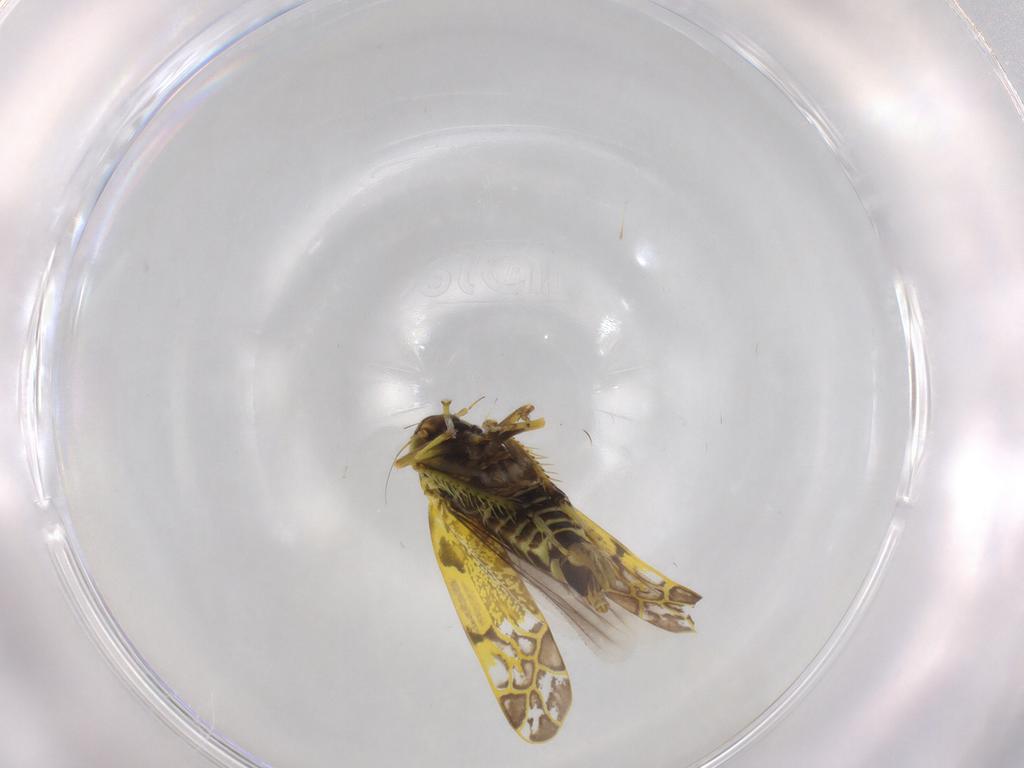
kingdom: Animalia
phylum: Arthropoda
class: Insecta
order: Hemiptera
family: Cicadellidae
